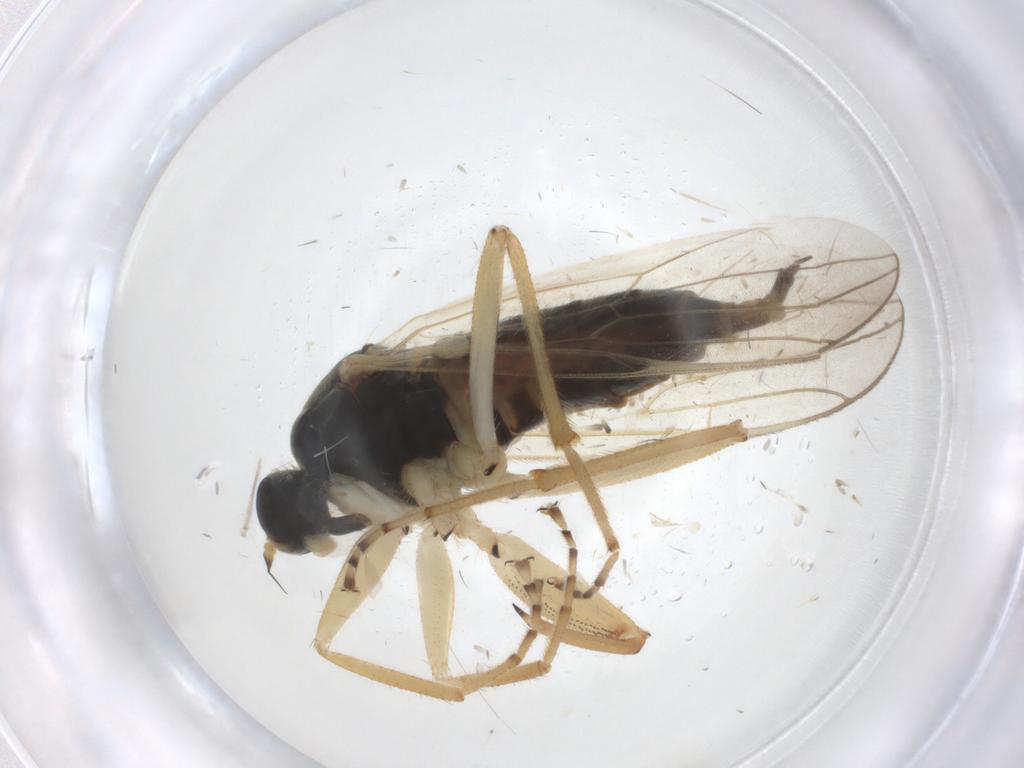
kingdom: Animalia
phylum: Arthropoda
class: Insecta
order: Diptera
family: Hybotidae
